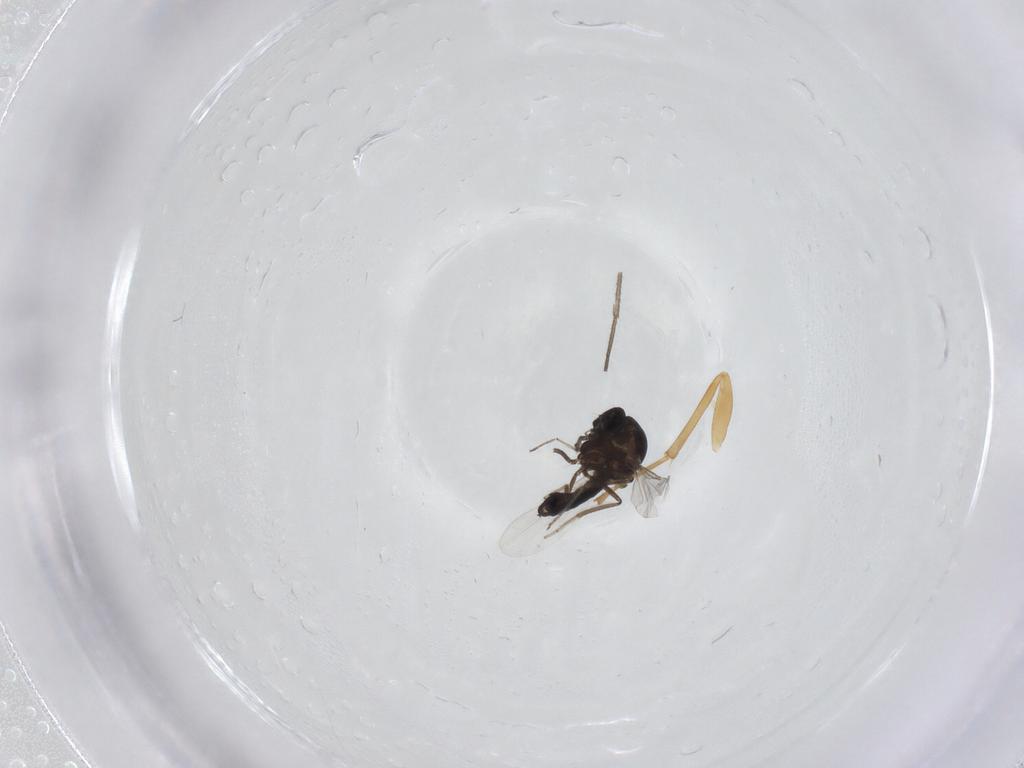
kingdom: Animalia
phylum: Arthropoda
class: Insecta
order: Diptera
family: Ceratopogonidae
